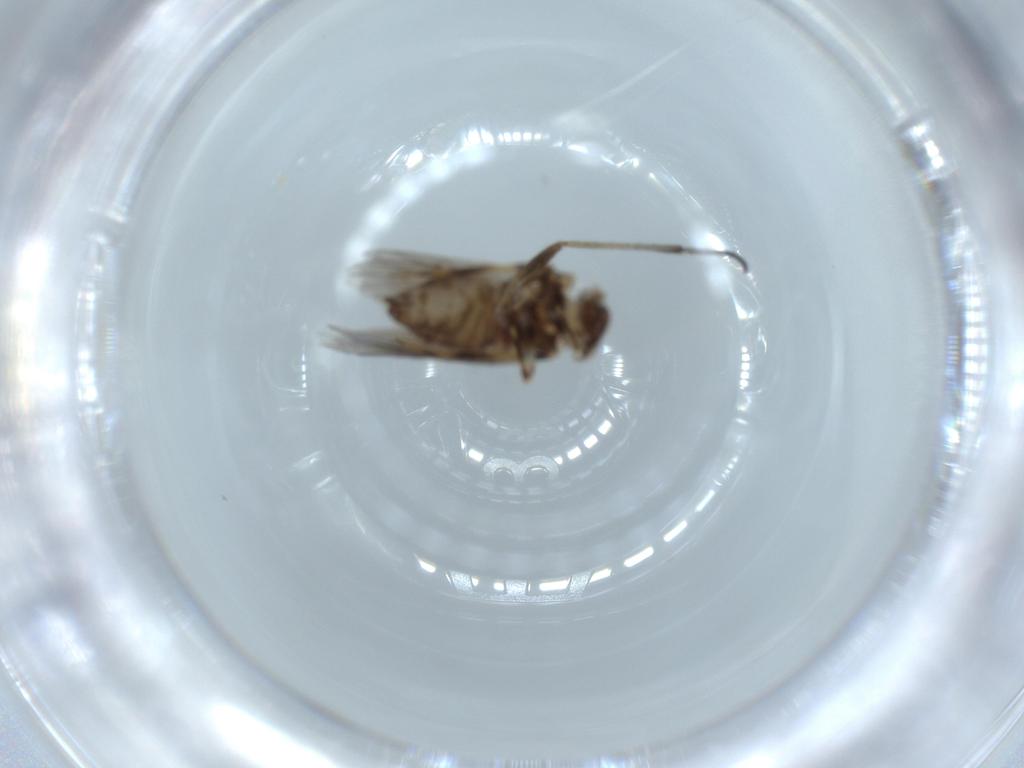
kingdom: Animalia
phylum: Arthropoda
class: Insecta
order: Psocodea
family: Lepidopsocidae
